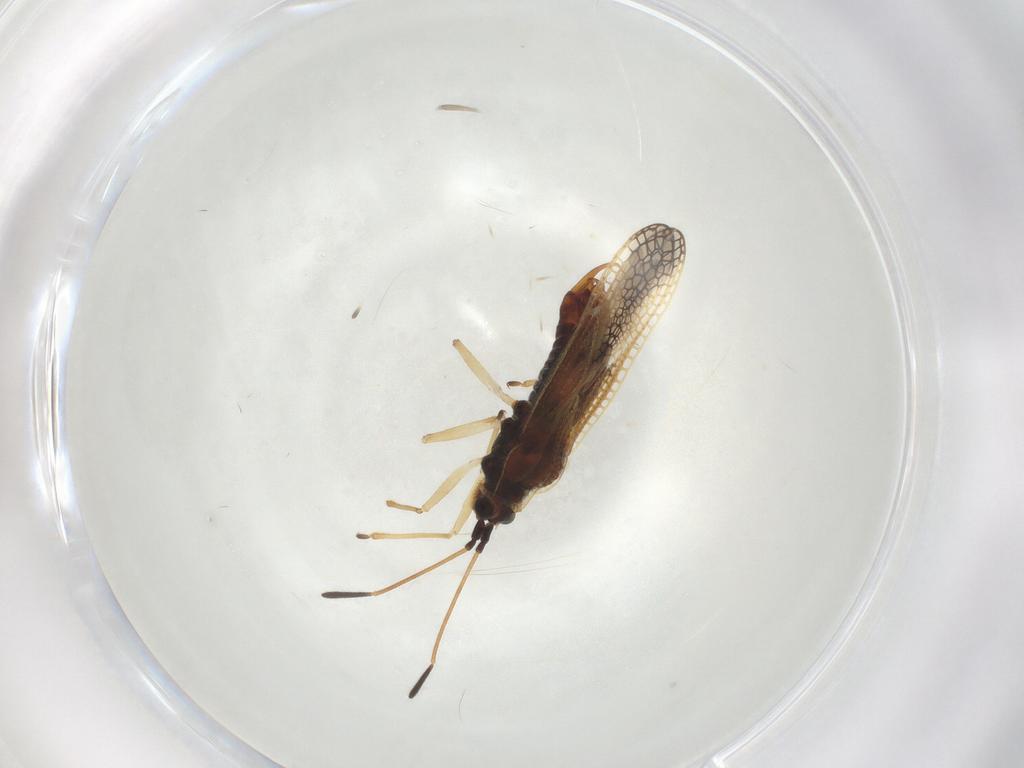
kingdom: Animalia
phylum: Arthropoda
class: Insecta
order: Hemiptera
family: Tingidae
